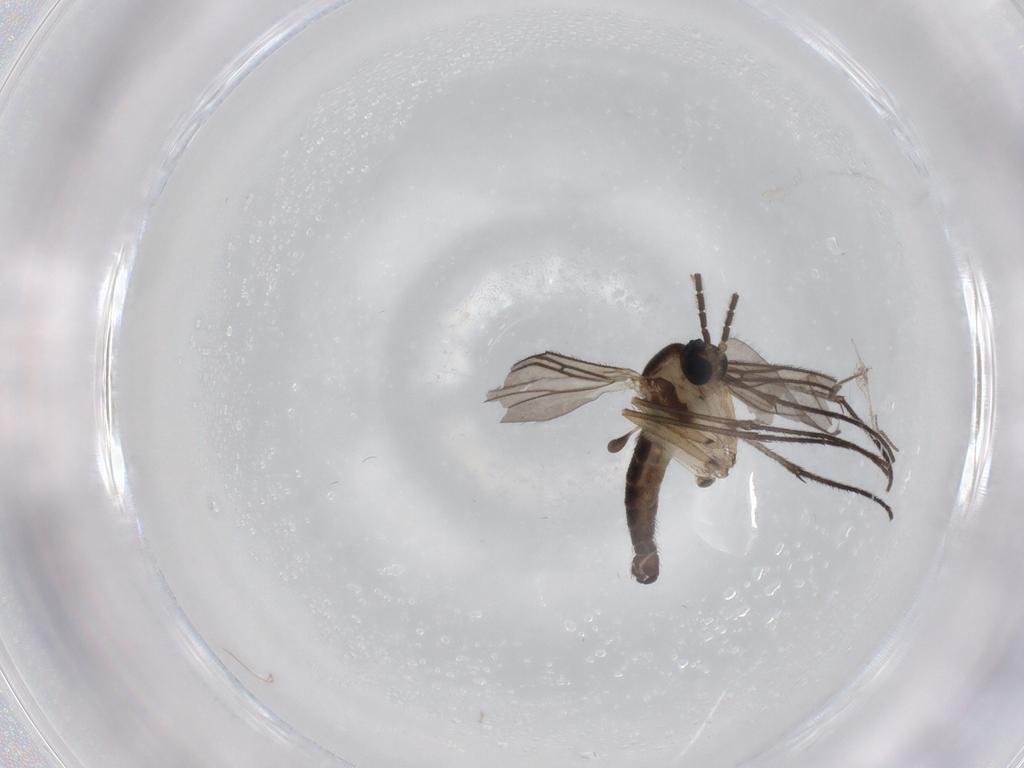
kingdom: Animalia
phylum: Arthropoda
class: Insecta
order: Diptera
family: Sciaridae
